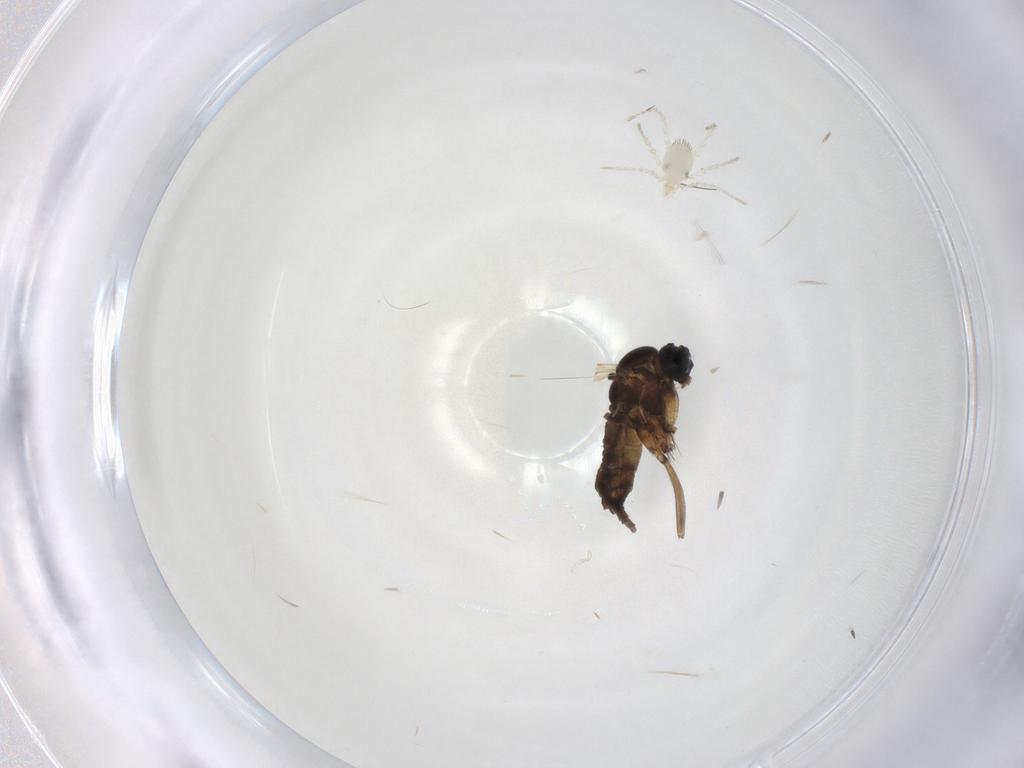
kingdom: Animalia
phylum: Arthropoda
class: Insecta
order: Diptera
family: Sciaridae
